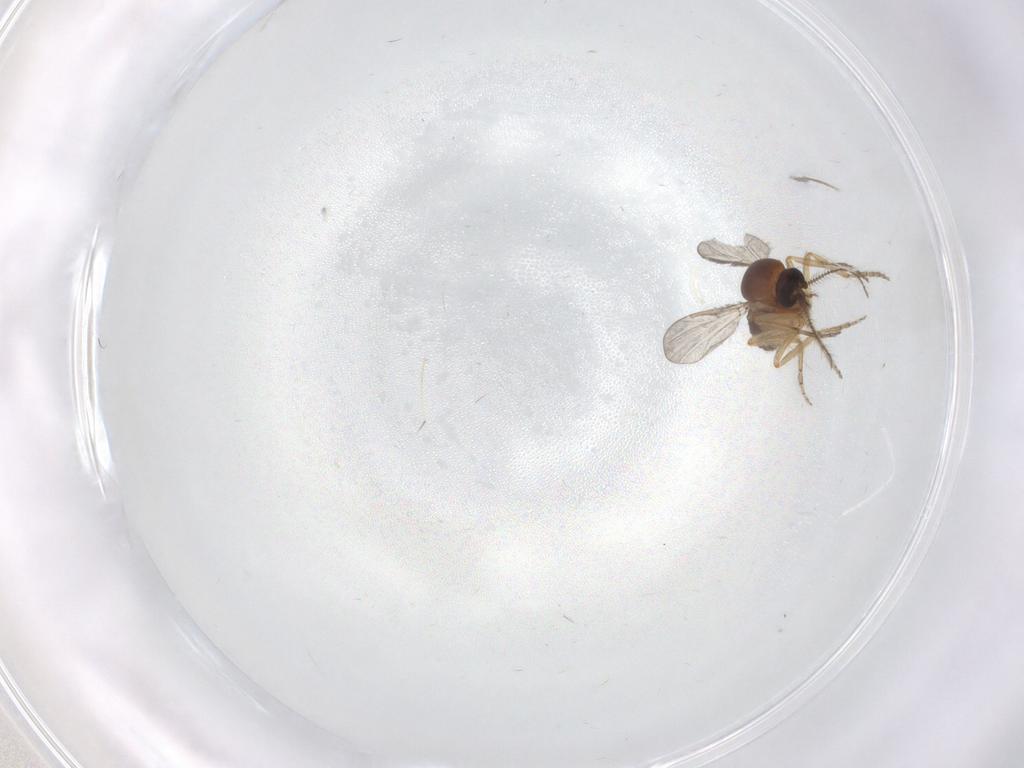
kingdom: Animalia
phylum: Arthropoda
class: Insecta
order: Diptera
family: Ceratopogonidae
